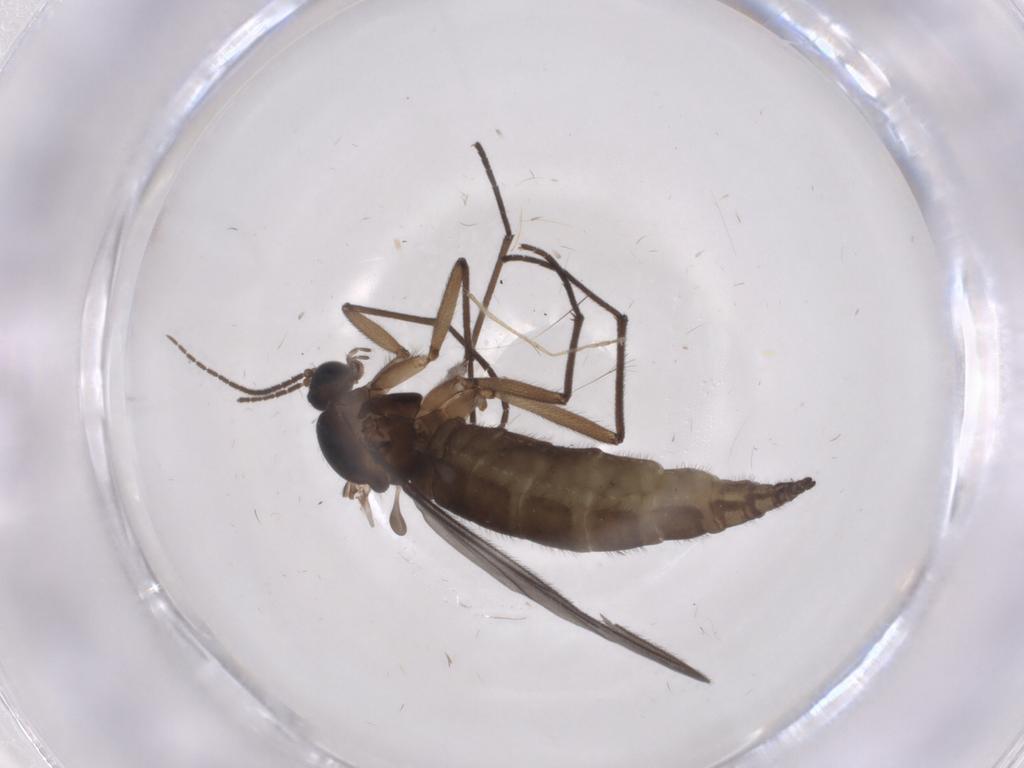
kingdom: Animalia
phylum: Arthropoda
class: Insecta
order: Diptera
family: Sciaridae
